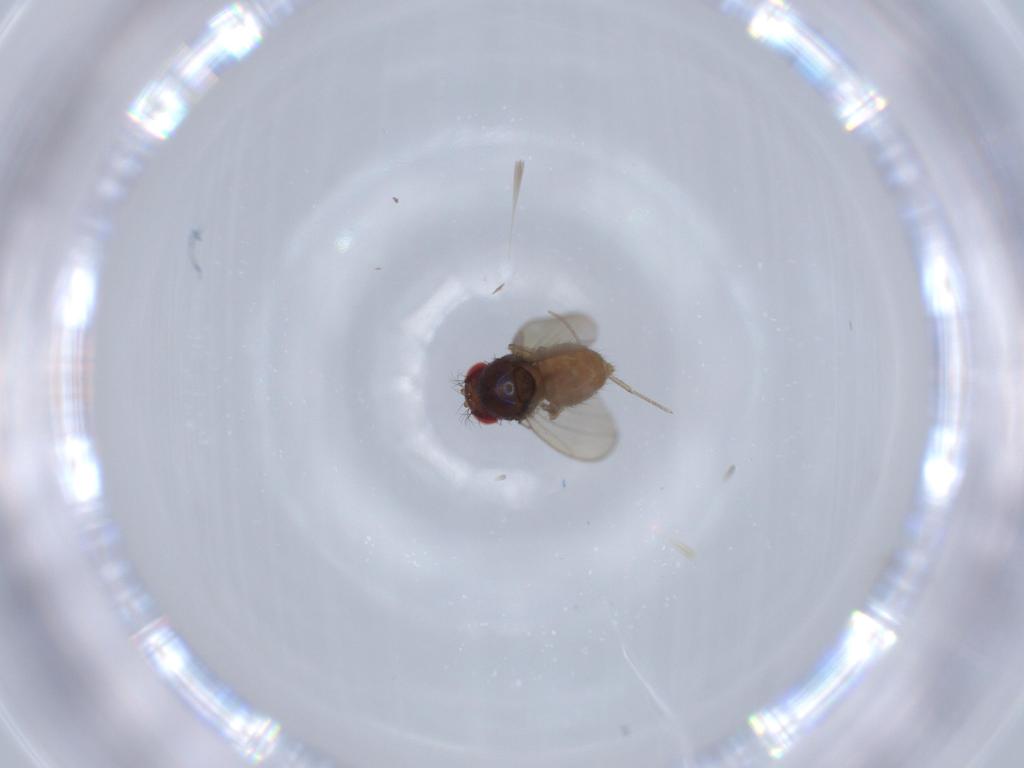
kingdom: Animalia
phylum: Arthropoda
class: Insecta
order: Diptera
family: Drosophilidae
